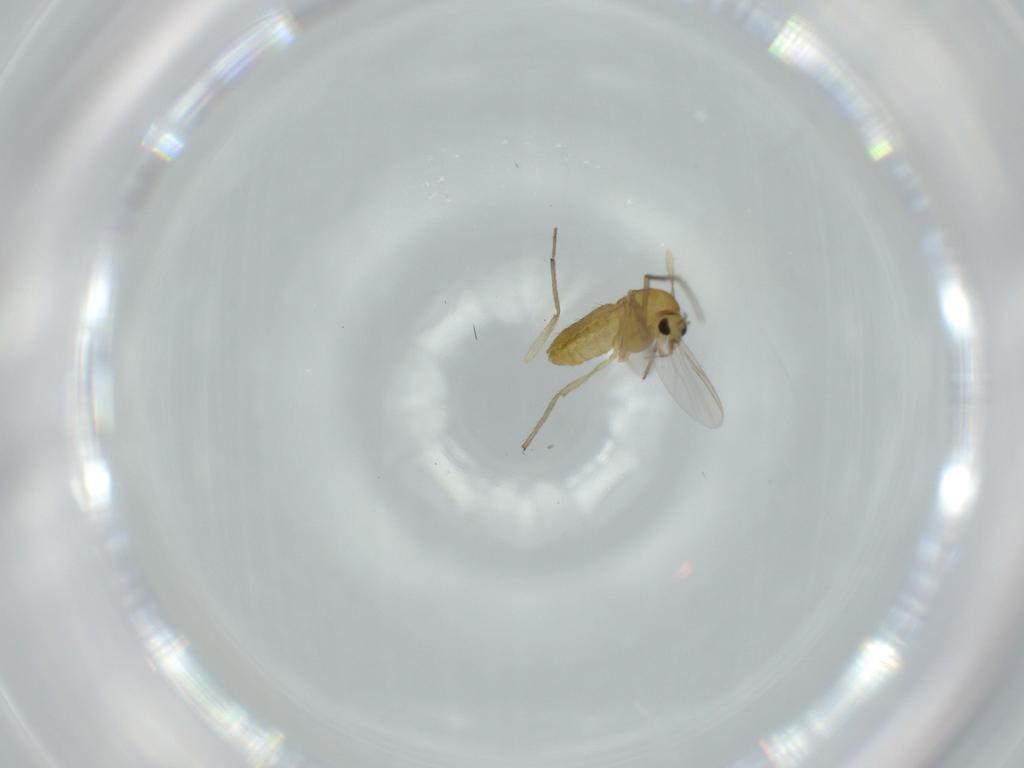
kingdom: Animalia
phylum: Arthropoda
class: Insecta
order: Diptera
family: Chironomidae
